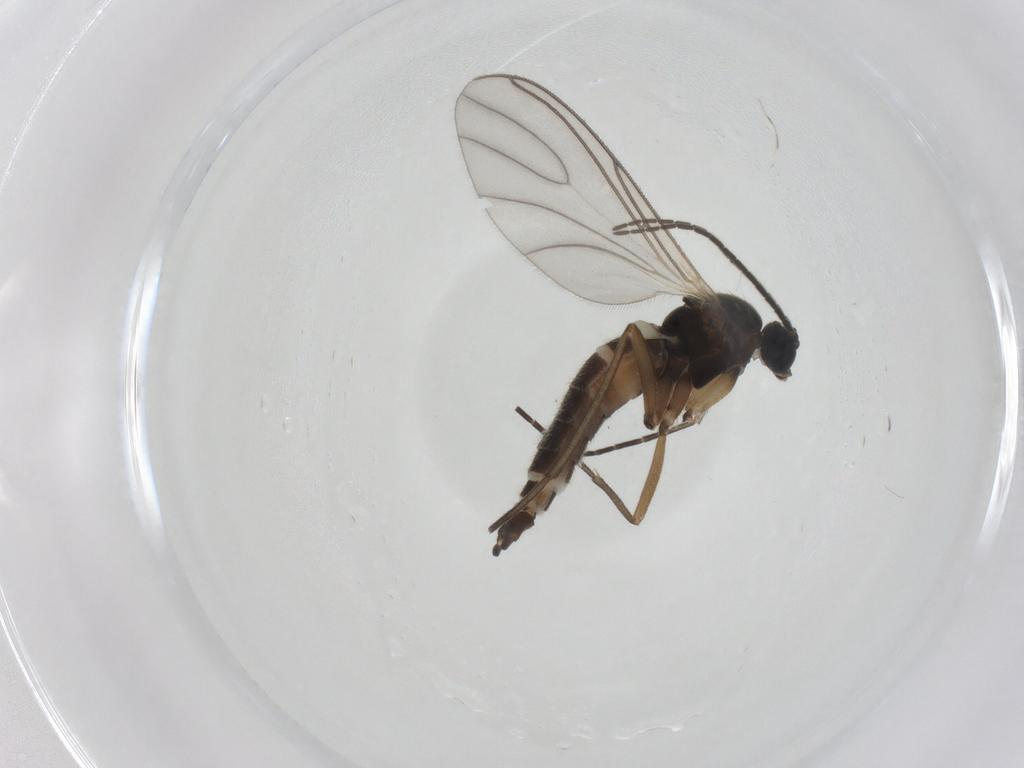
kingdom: Animalia
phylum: Arthropoda
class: Insecta
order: Diptera
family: Sciaridae
